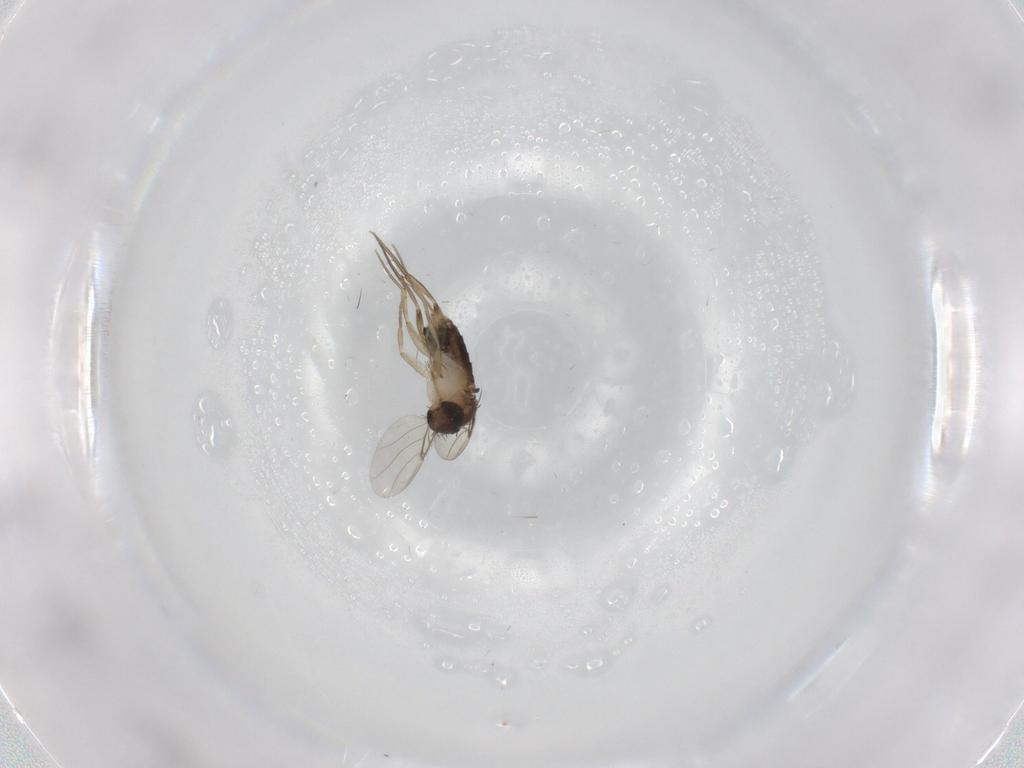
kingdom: Animalia
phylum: Arthropoda
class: Insecta
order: Diptera
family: Phoridae
